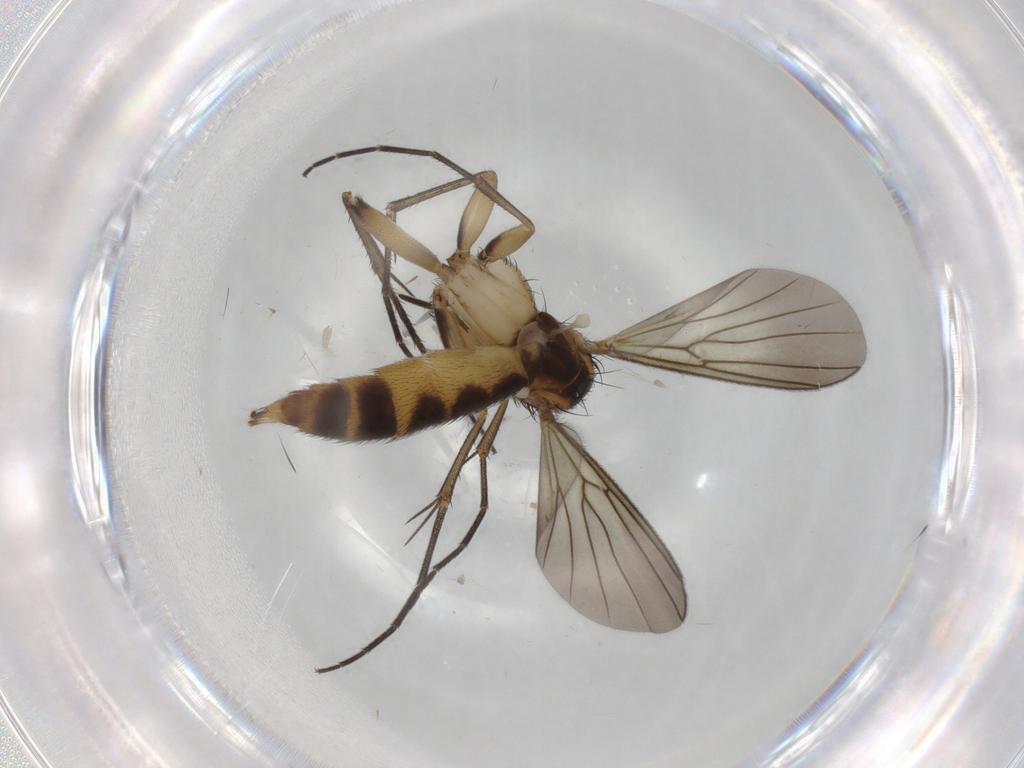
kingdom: Animalia
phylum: Arthropoda
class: Insecta
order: Diptera
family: Mycetophilidae
